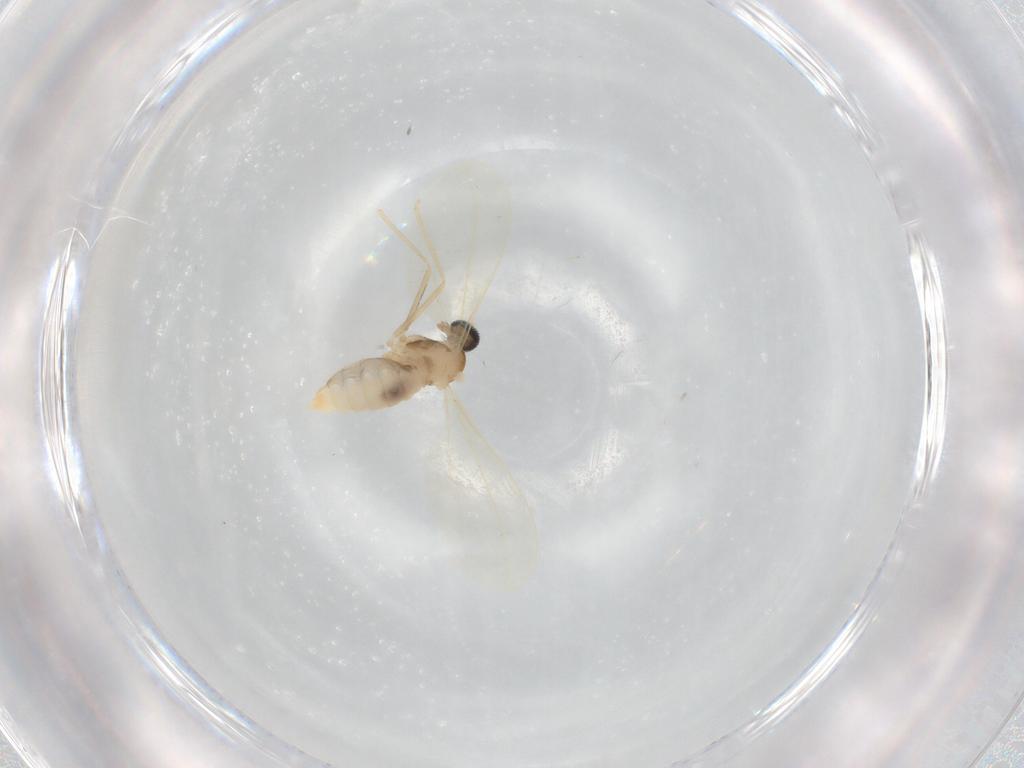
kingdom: Animalia
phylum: Arthropoda
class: Insecta
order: Diptera
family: Cecidomyiidae
